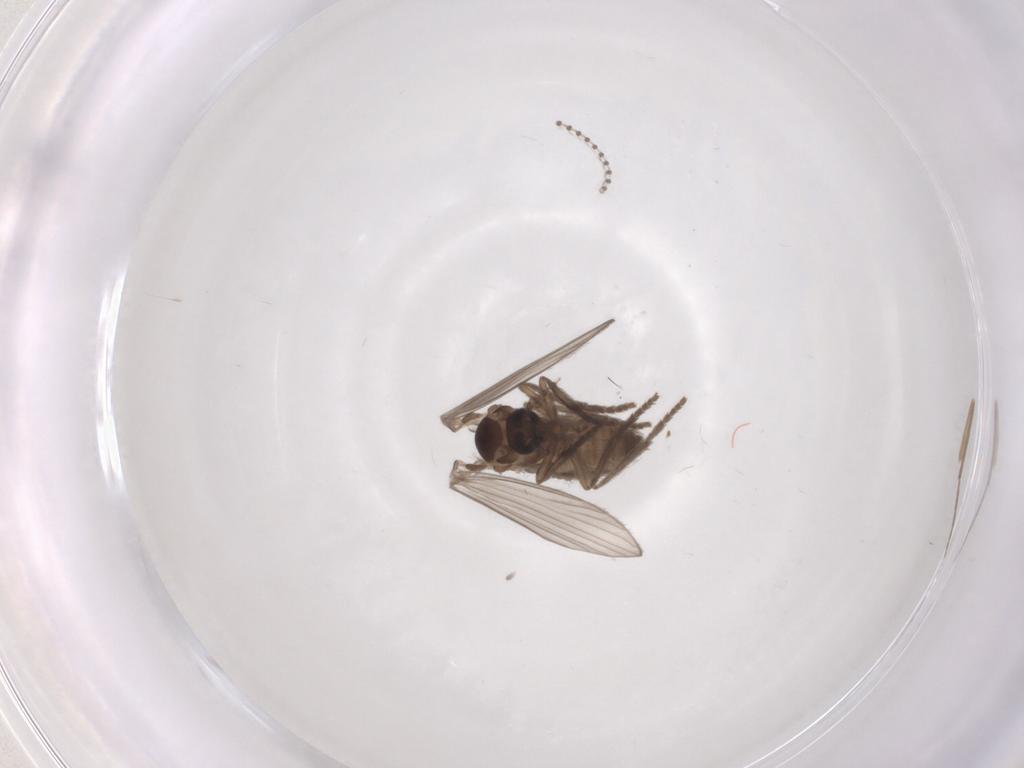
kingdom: Animalia
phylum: Arthropoda
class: Insecta
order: Diptera
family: Psychodidae
